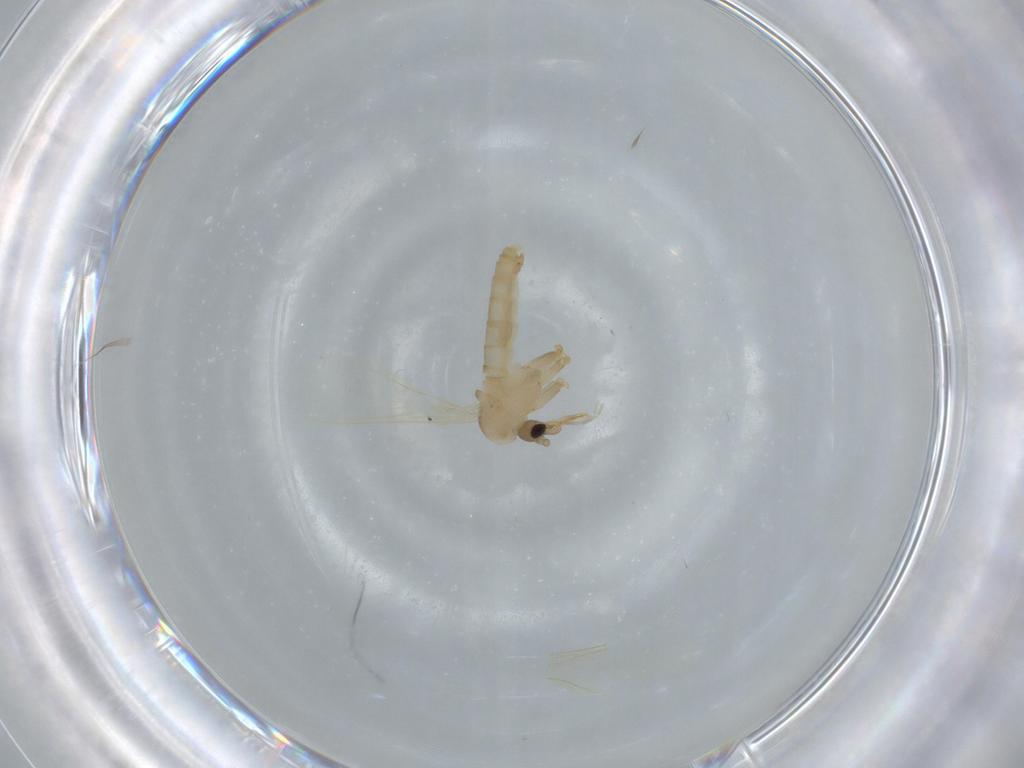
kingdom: Animalia
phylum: Arthropoda
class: Insecta
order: Diptera
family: Psychodidae
